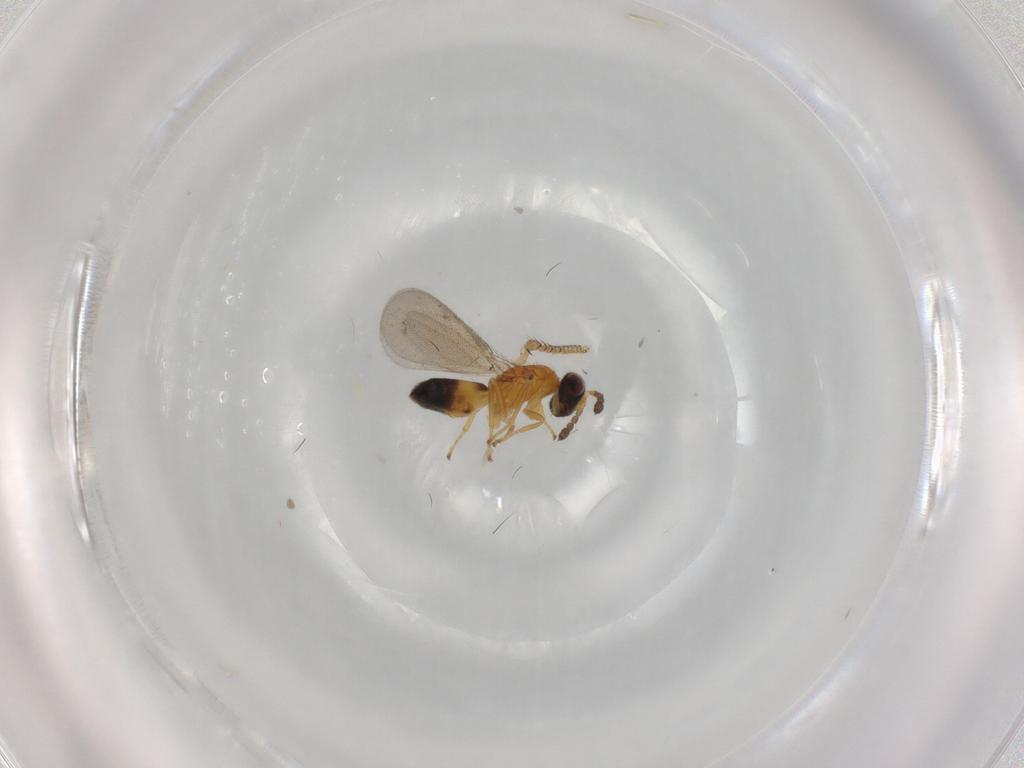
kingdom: Animalia
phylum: Arthropoda
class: Insecta
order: Hymenoptera
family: Eulophidae
